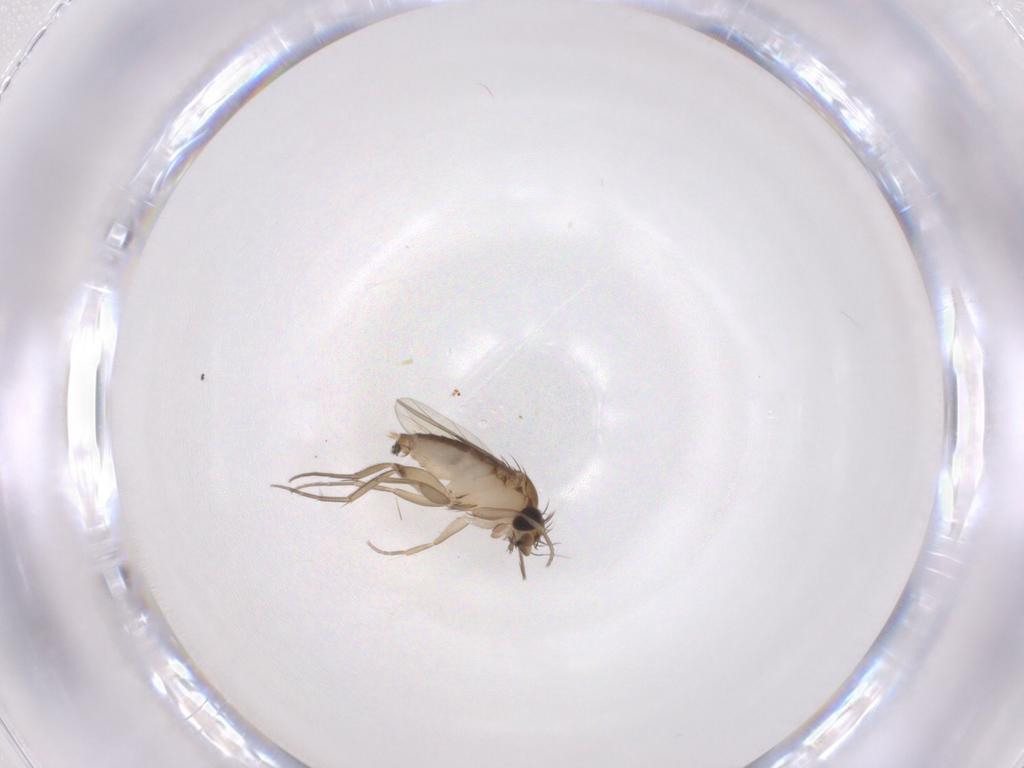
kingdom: Animalia
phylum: Arthropoda
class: Insecta
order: Diptera
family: Phoridae
